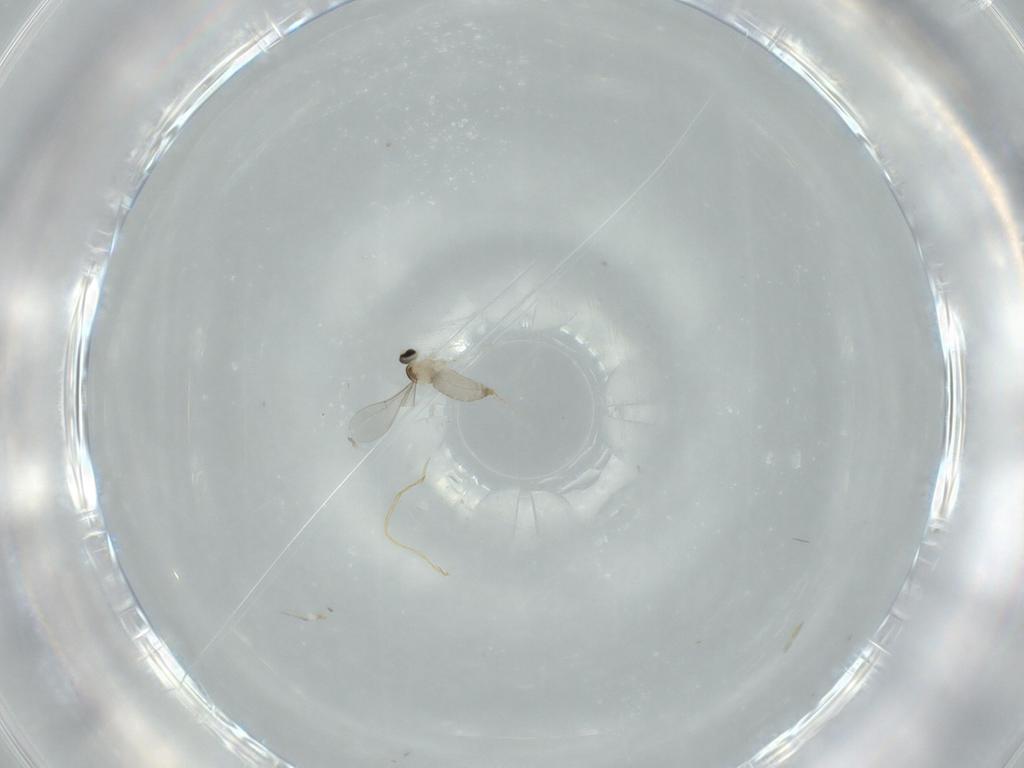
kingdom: Animalia
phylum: Arthropoda
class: Insecta
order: Diptera
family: Cecidomyiidae
